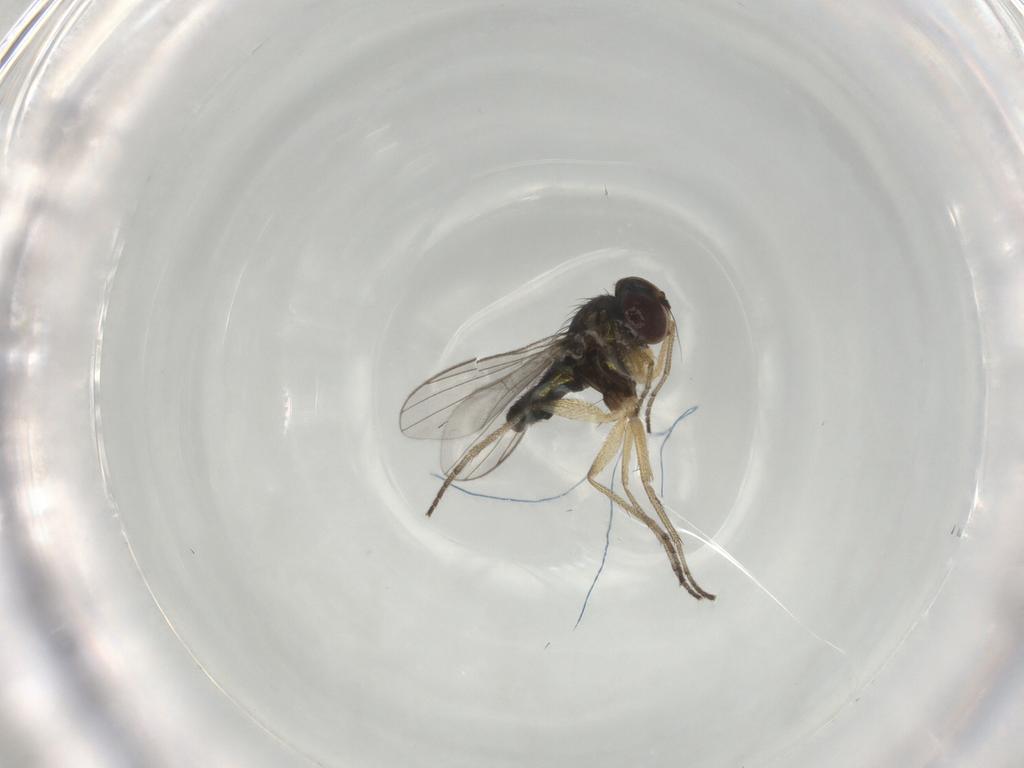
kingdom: Animalia
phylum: Arthropoda
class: Insecta
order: Diptera
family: Dolichopodidae
